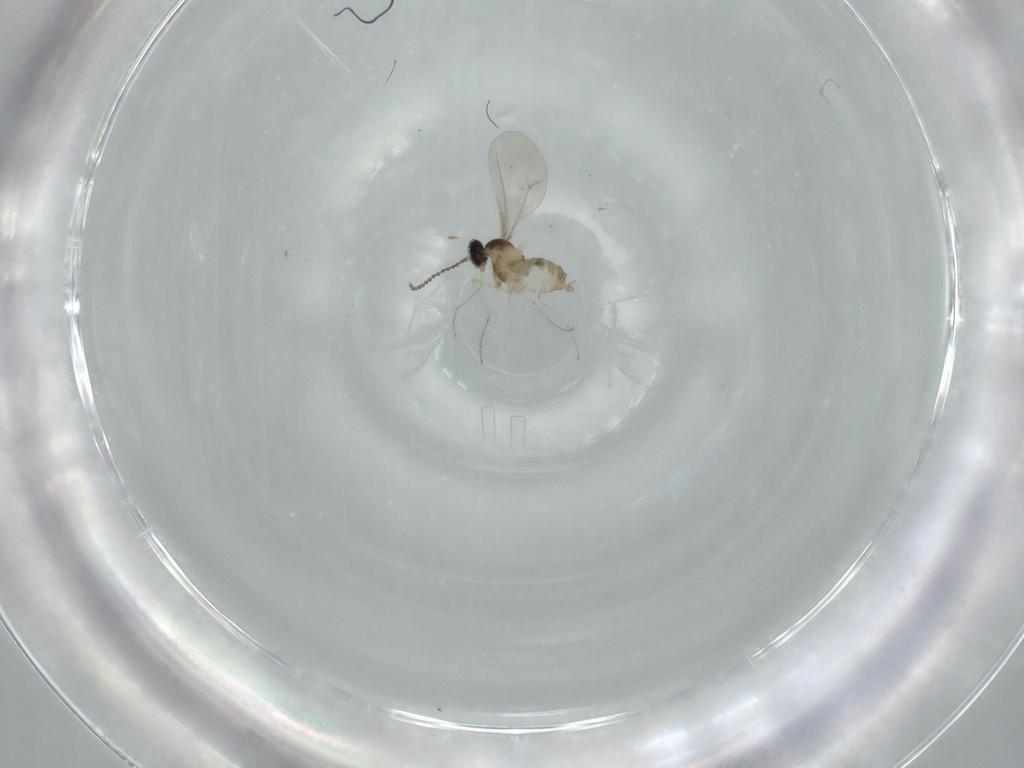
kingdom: Animalia
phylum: Arthropoda
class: Insecta
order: Diptera
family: Cecidomyiidae
